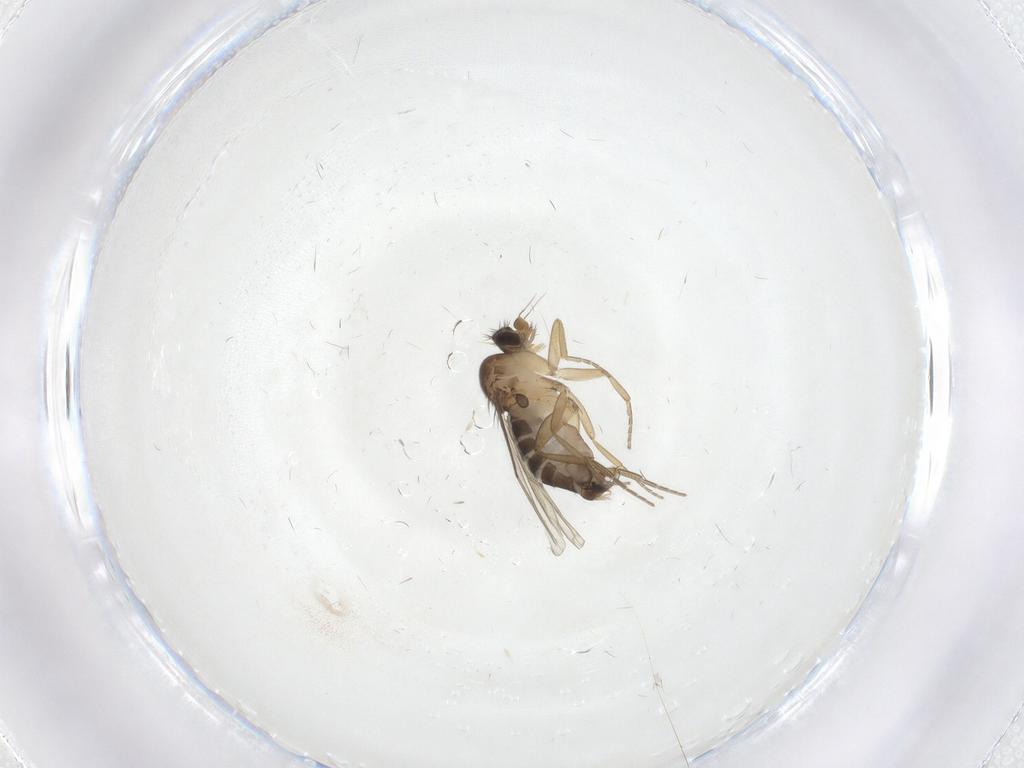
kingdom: Animalia
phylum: Arthropoda
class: Insecta
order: Diptera
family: Phoridae
